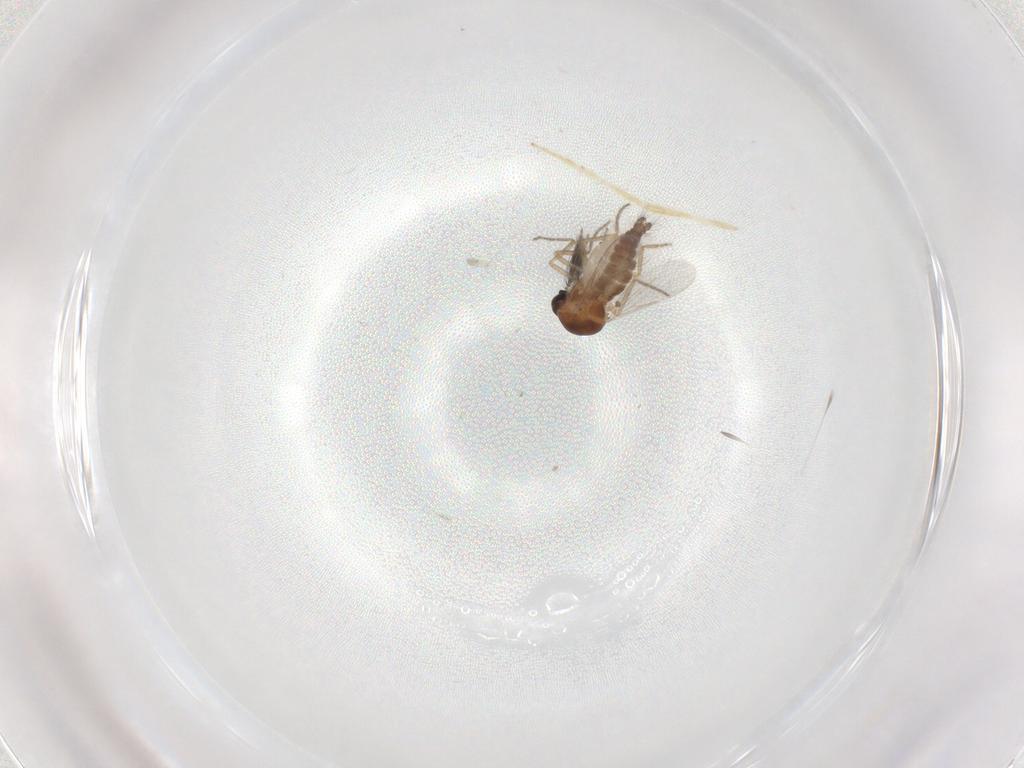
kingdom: Animalia
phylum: Arthropoda
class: Insecta
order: Diptera
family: Ceratopogonidae
